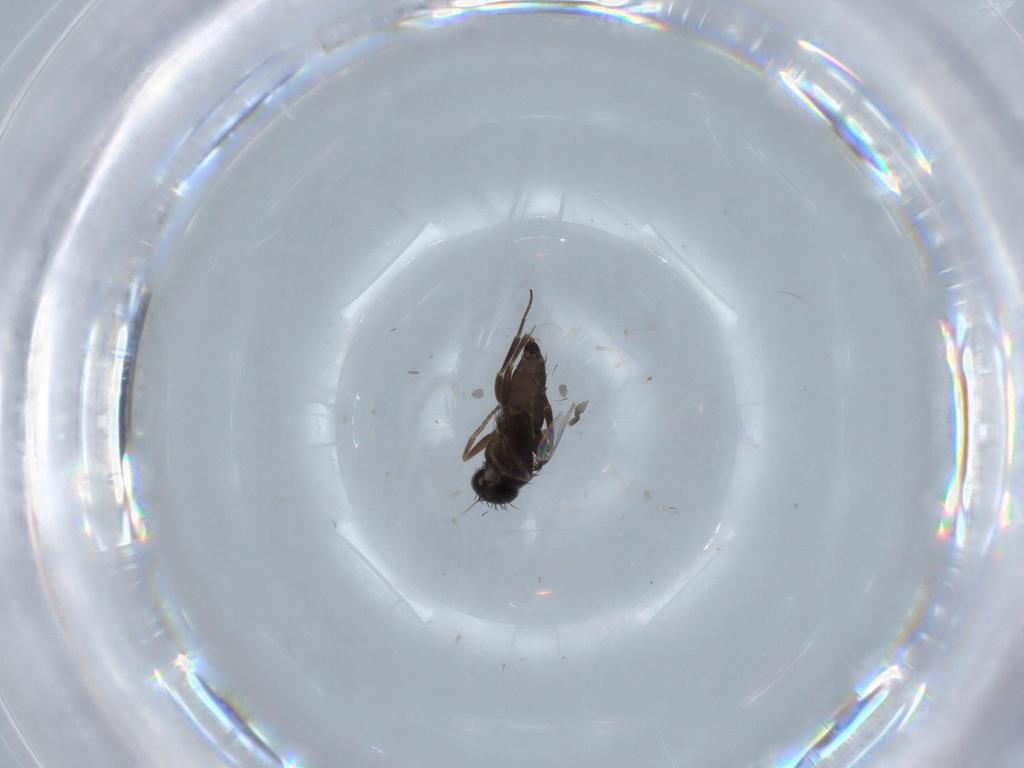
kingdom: Animalia
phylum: Arthropoda
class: Insecta
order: Diptera
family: Phoridae
